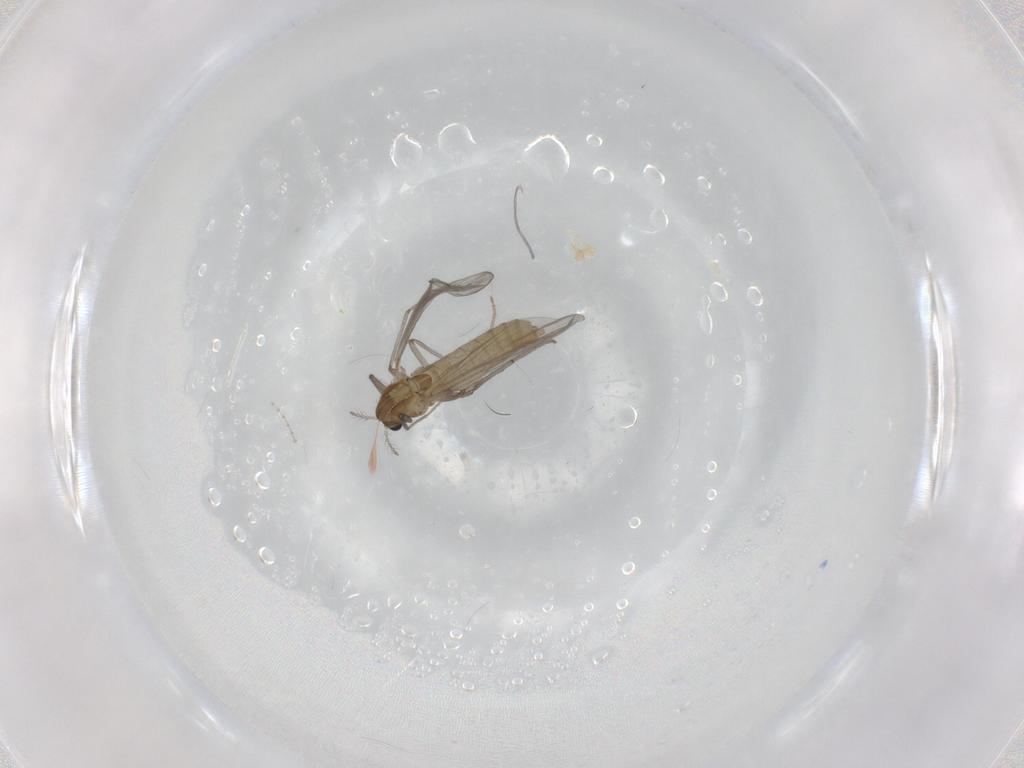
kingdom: Animalia
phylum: Arthropoda
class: Insecta
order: Diptera
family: Chironomidae
